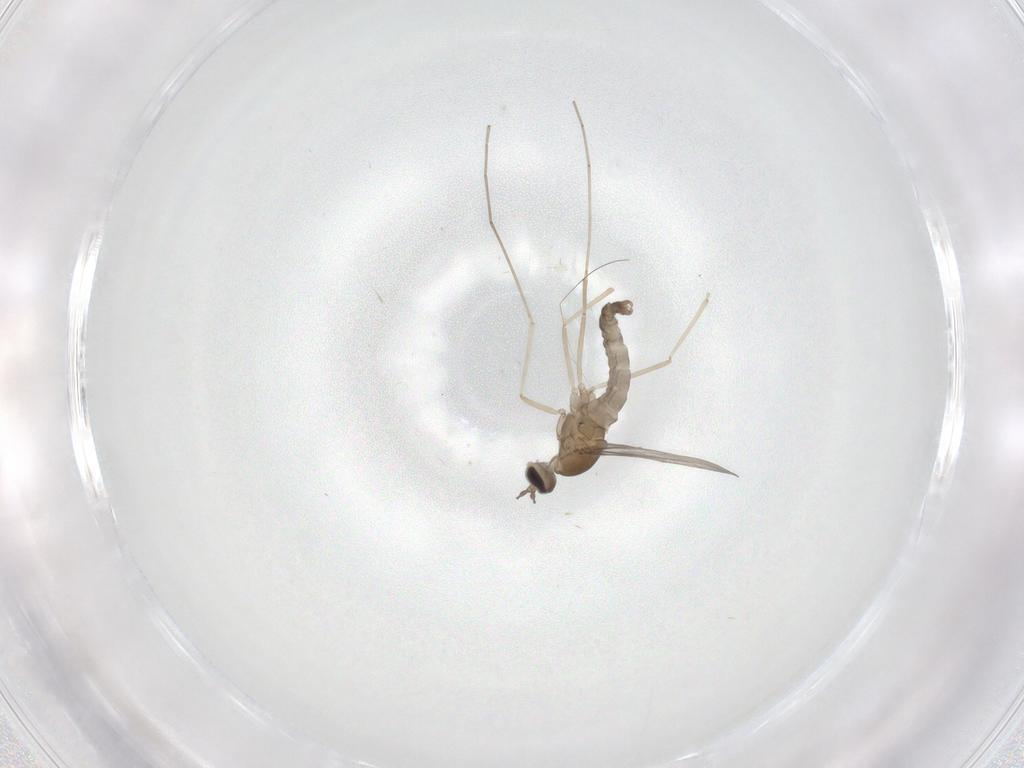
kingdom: Animalia
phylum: Arthropoda
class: Insecta
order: Diptera
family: Cecidomyiidae
